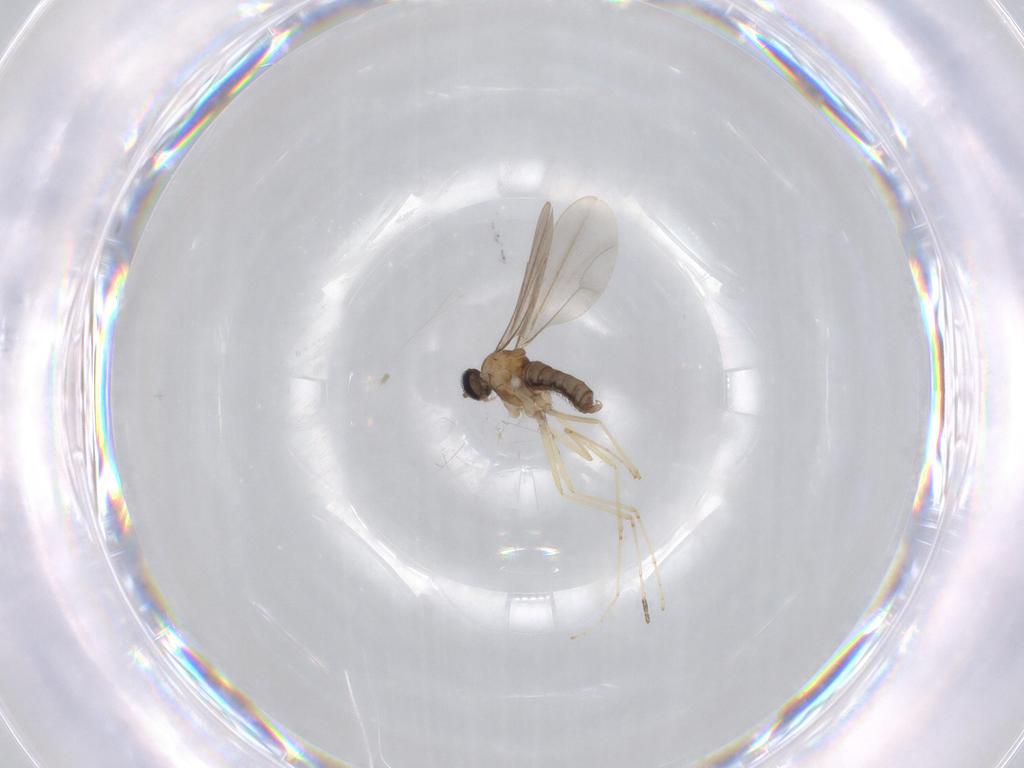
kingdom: Animalia
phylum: Arthropoda
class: Insecta
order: Diptera
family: Cecidomyiidae
